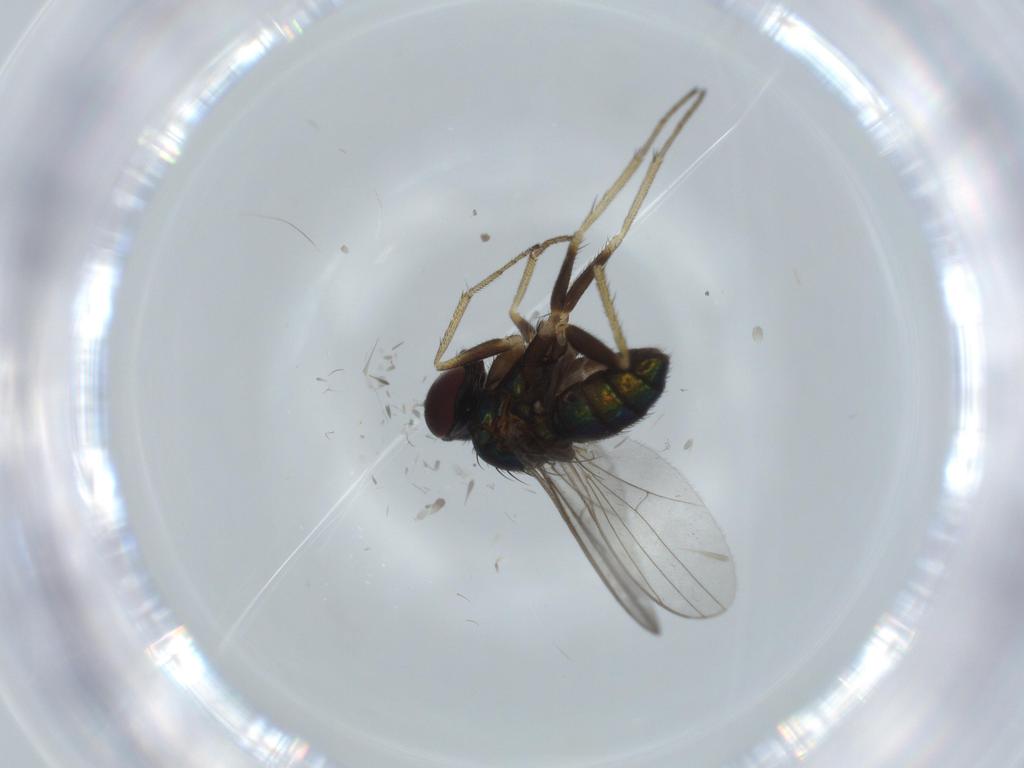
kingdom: Animalia
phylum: Arthropoda
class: Insecta
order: Diptera
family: Dolichopodidae
